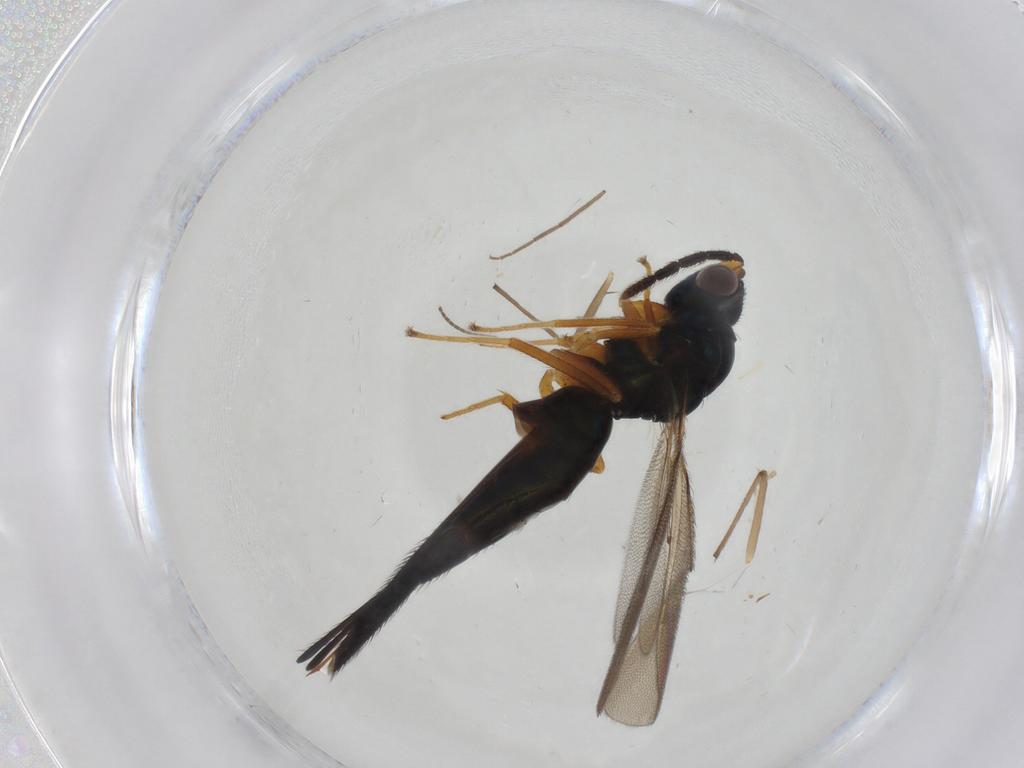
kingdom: Animalia
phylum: Arthropoda
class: Insecta
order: Hymenoptera
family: Eulophidae
